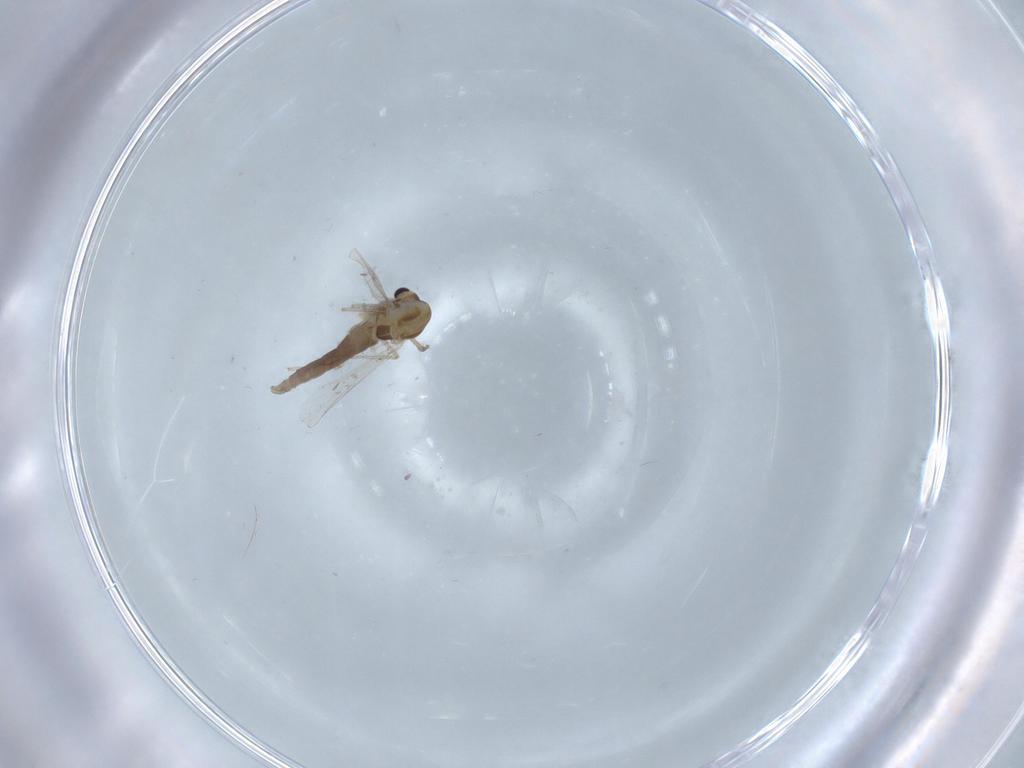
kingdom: Animalia
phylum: Arthropoda
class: Insecta
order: Diptera
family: Chironomidae
